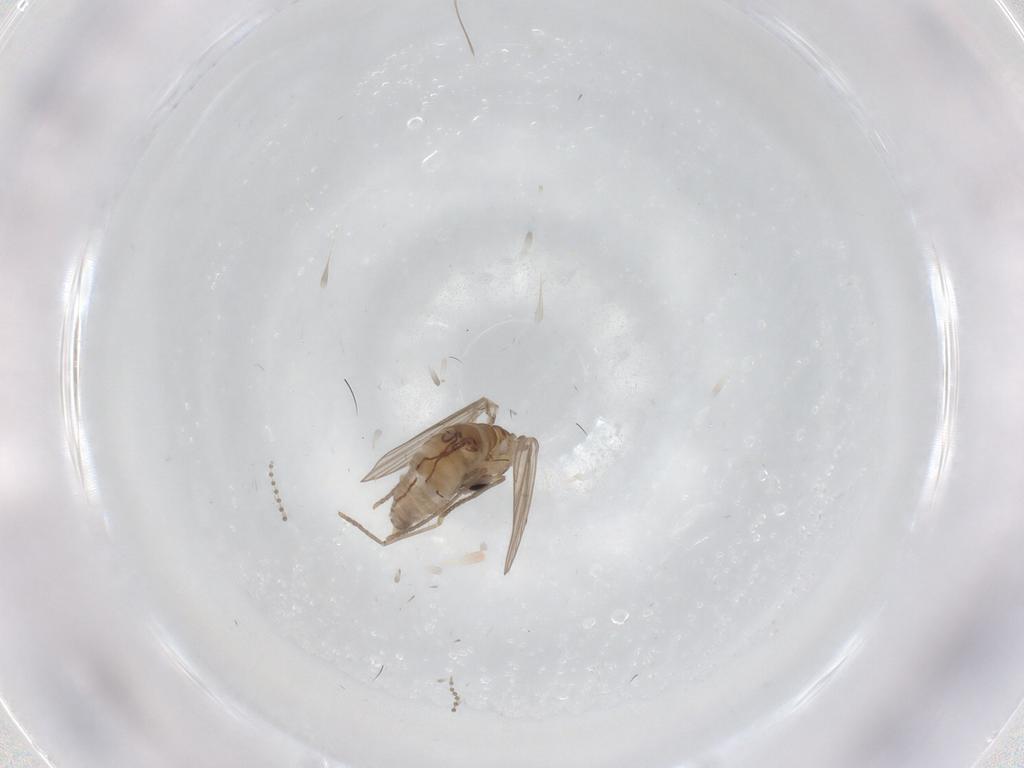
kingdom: Animalia
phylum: Arthropoda
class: Insecta
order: Diptera
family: Psychodidae
